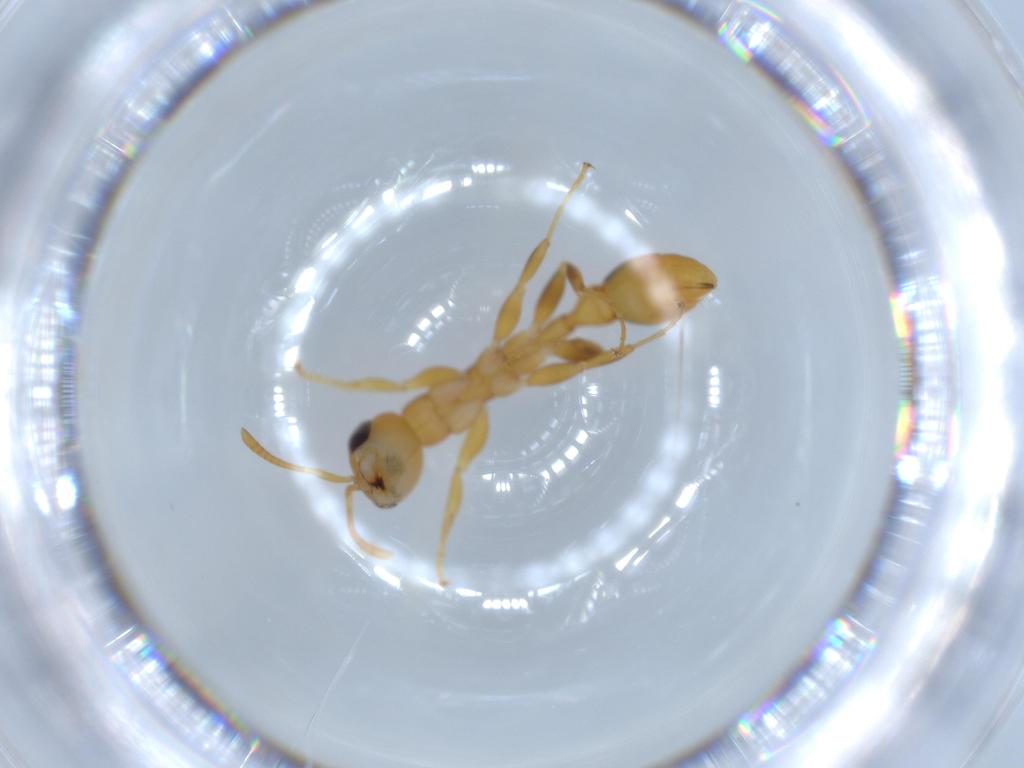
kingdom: Animalia
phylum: Arthropoda
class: Insecta
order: Hymenoptera
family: Formicidae
